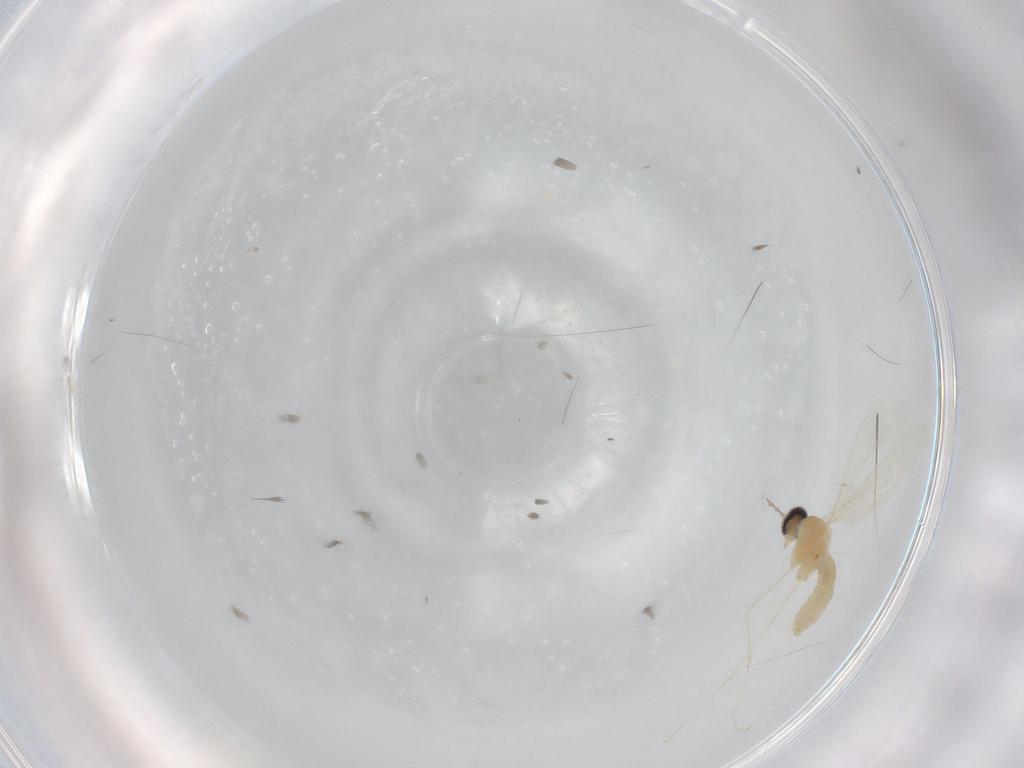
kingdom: Animalia
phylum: Arthropoda
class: Insecta
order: Diptera
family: Cecidomyiidae
